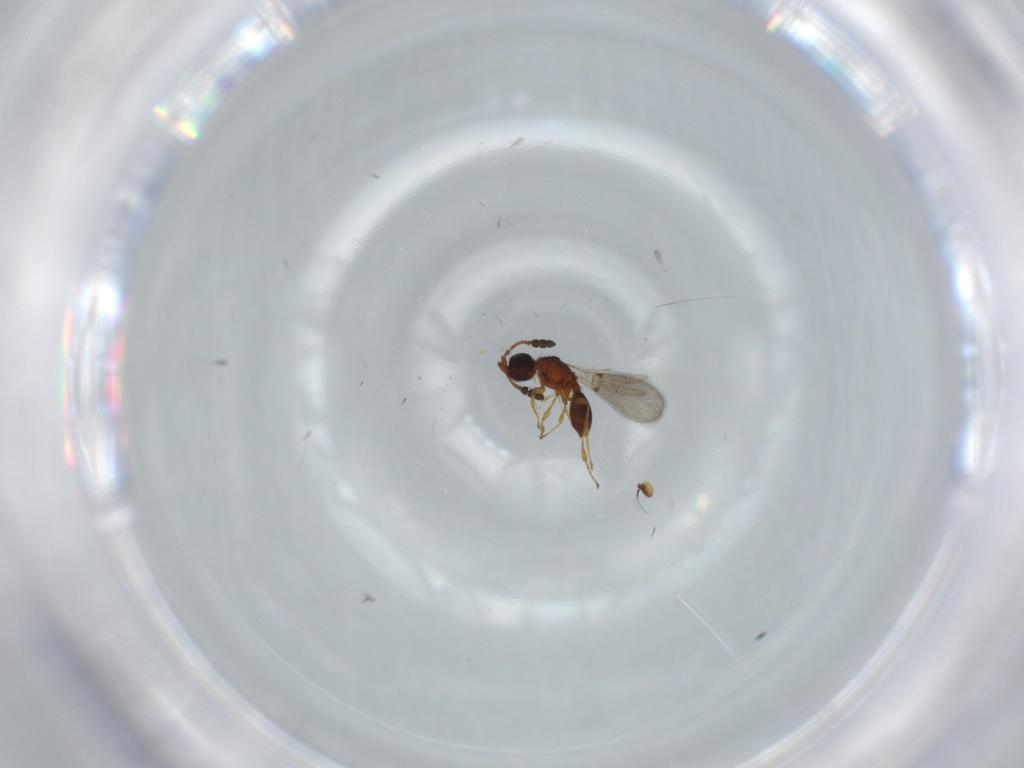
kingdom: Animalia
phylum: Arthropoda
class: Insecta
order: Hymenoptera
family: Diapriidae
